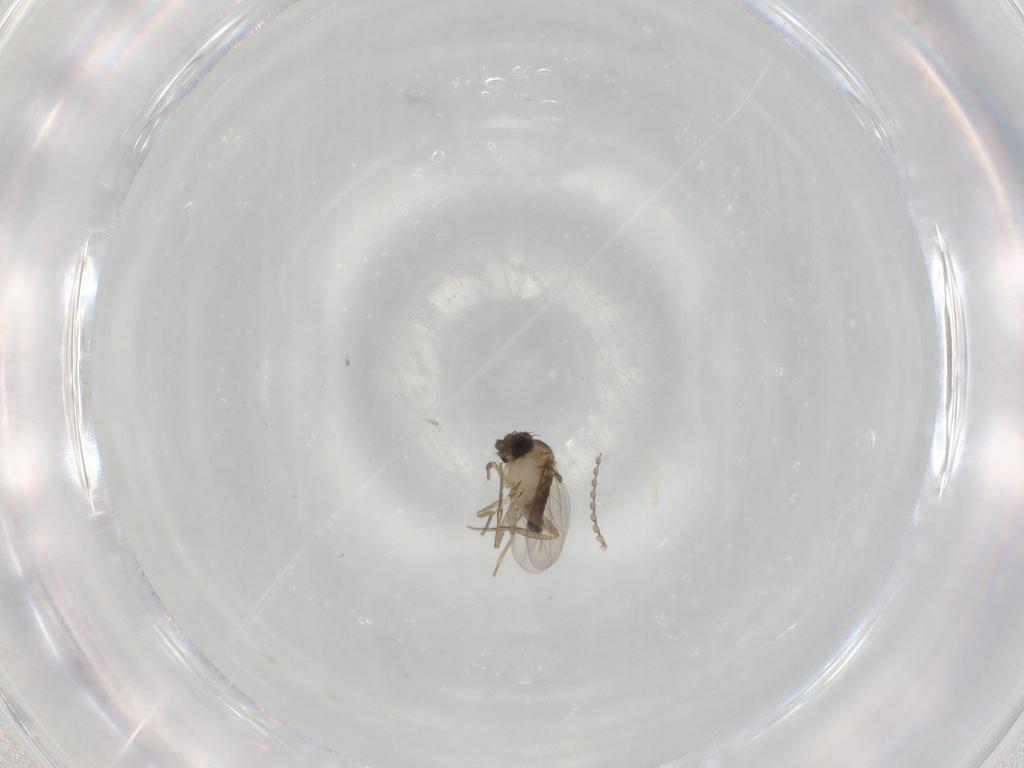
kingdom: Animalia
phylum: Arthropoda
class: Insecta
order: Diptera
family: Phoridae
